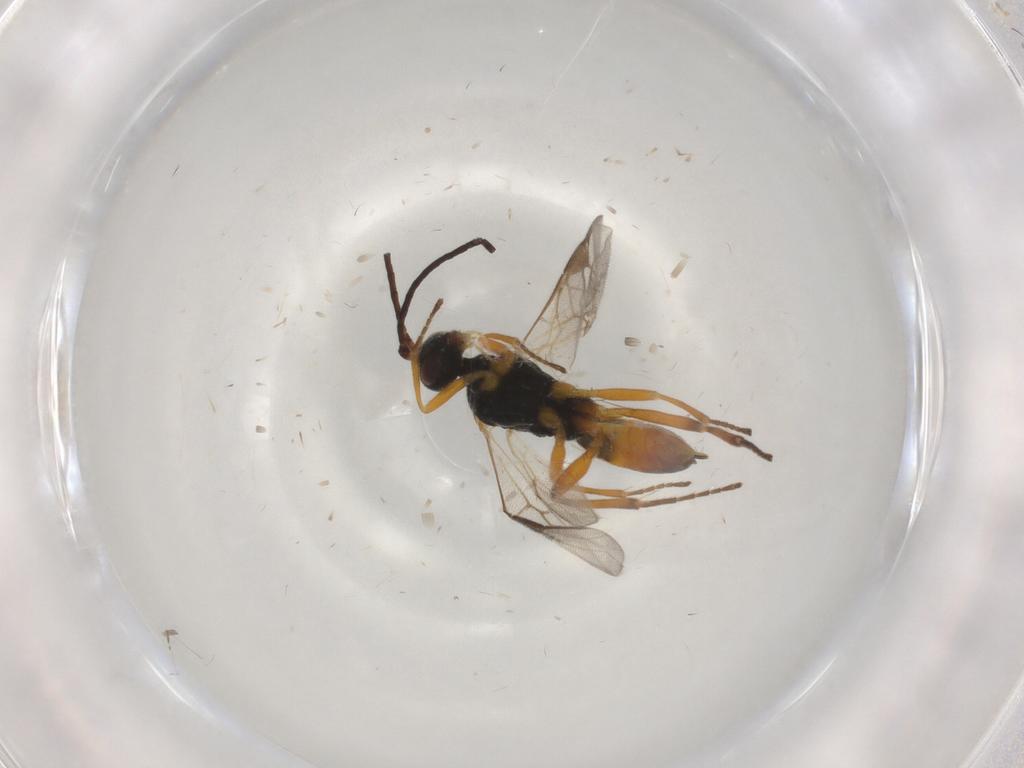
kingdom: Animalia
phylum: Arthropoda
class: Insecta
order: Hymenoptera
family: Braconidae
